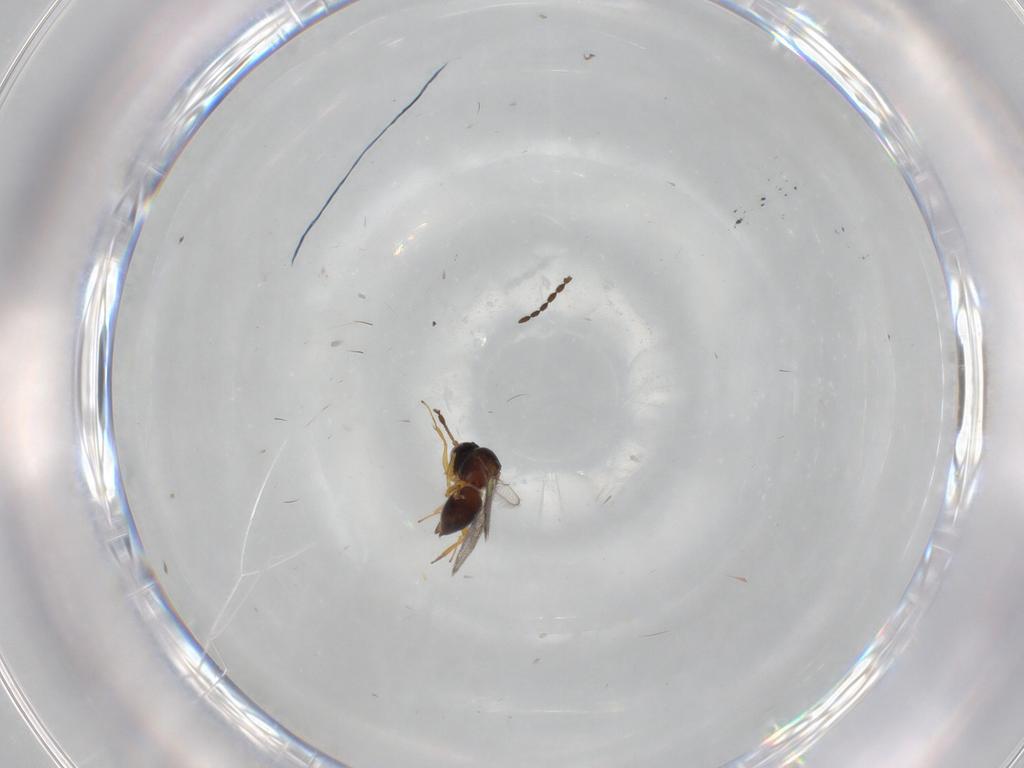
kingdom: Animalia
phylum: Arthropoda
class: Insecta
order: Hymenoptera
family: Figitidae
